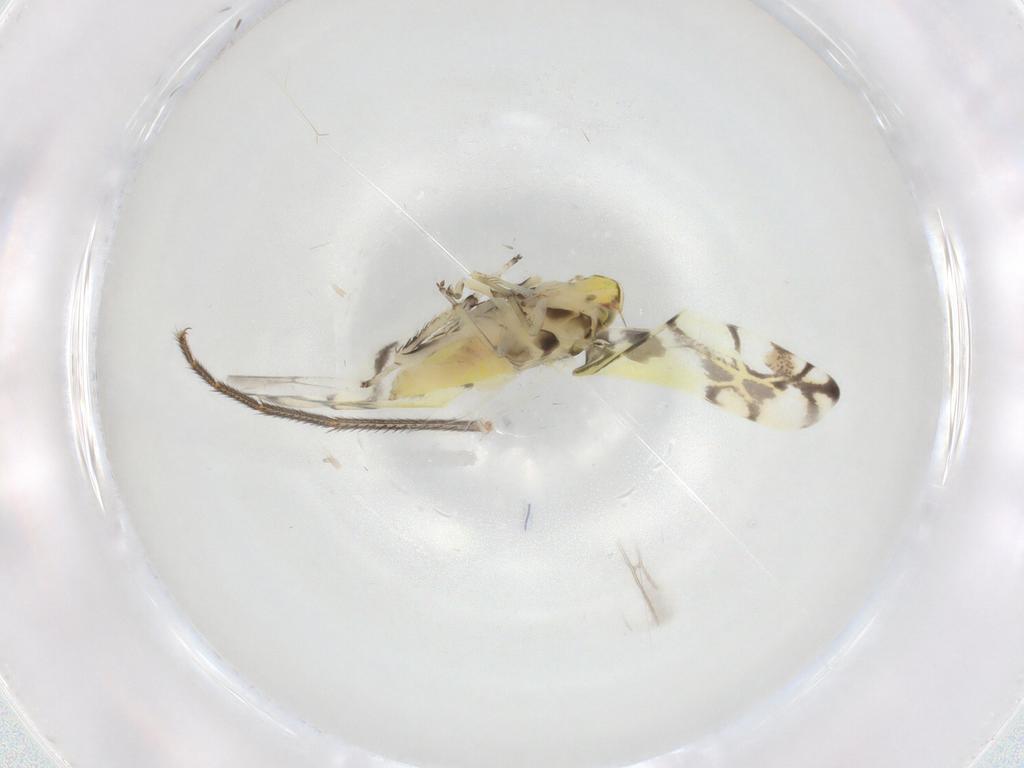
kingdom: Animalia
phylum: Arthropoda
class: Insecta
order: Hemiptera
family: Cicadellidae
